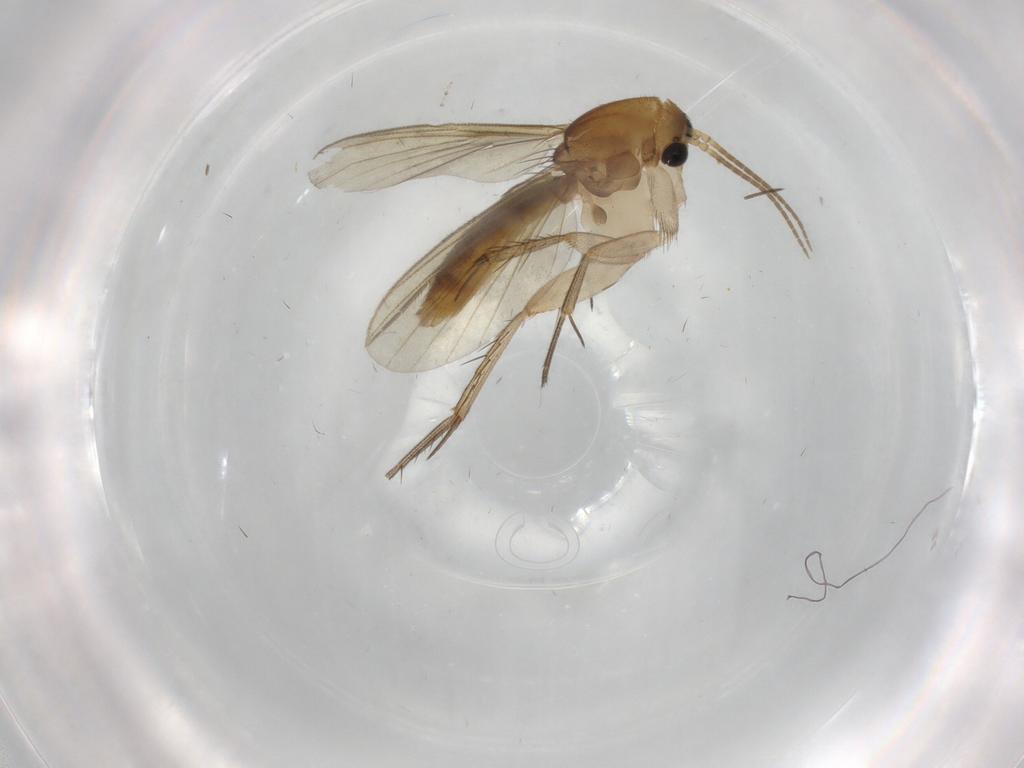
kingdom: Animalia
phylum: Arthropoda
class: Insecta
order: Diptera
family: Mycetophilidae
